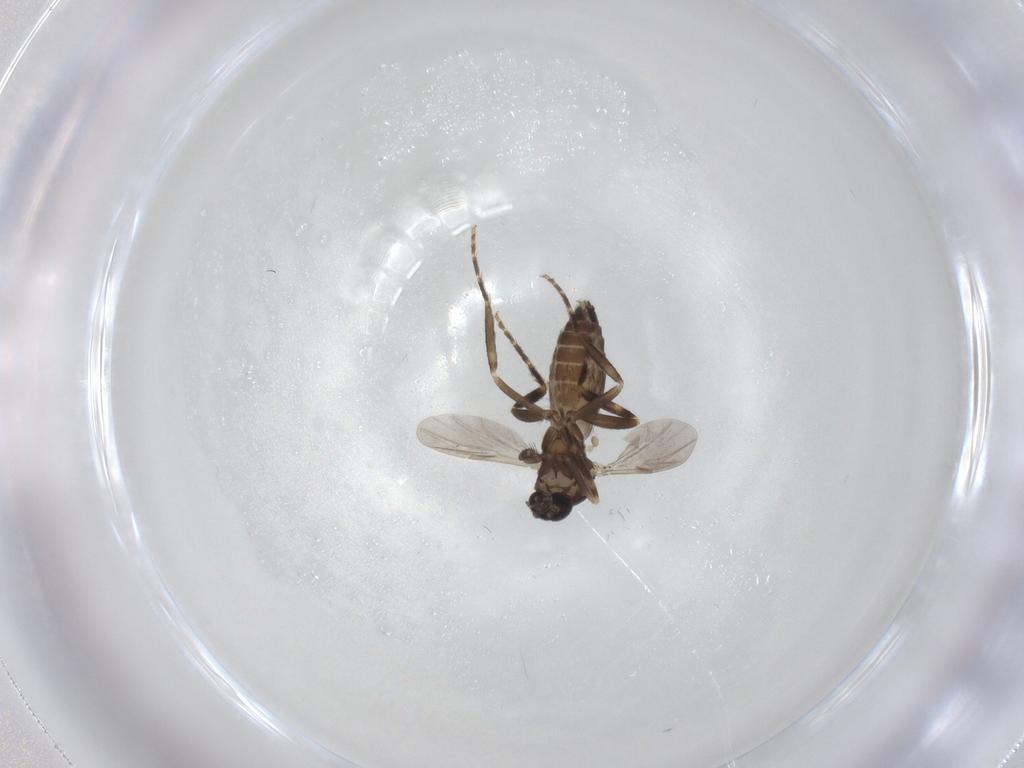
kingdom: Animalia
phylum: Arthropoda
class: Insecta
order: Diptera
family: Ceratopogonidae
